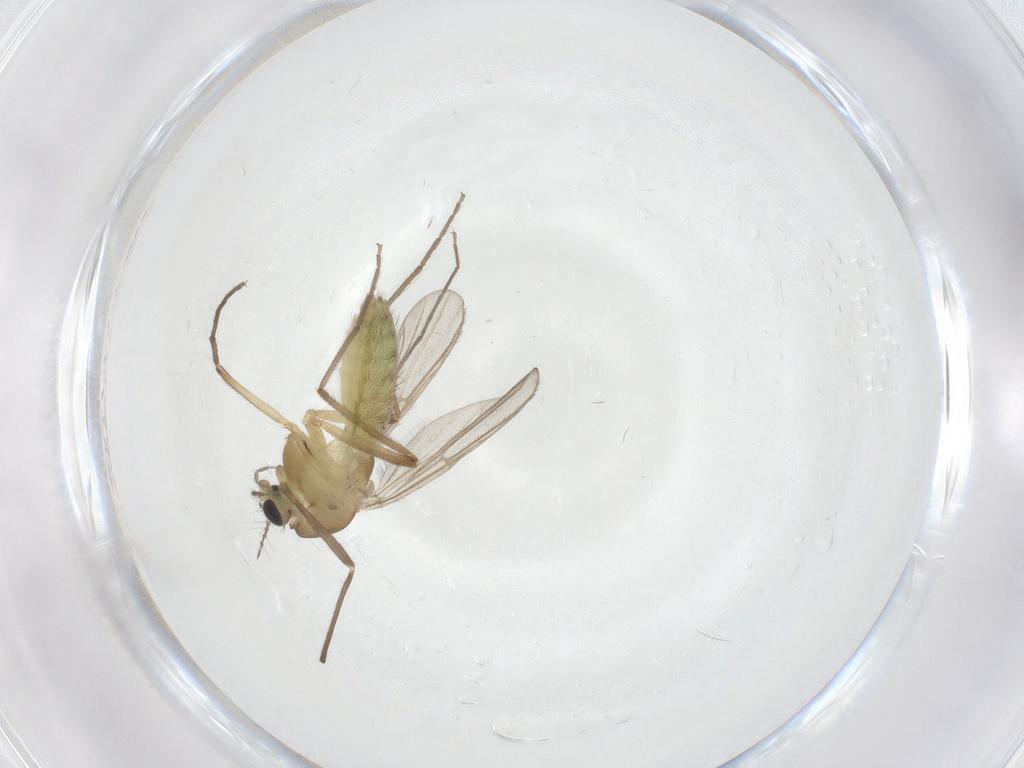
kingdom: Animalia
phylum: Arthropoda
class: Insecta
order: Diptera
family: Chironomidae
